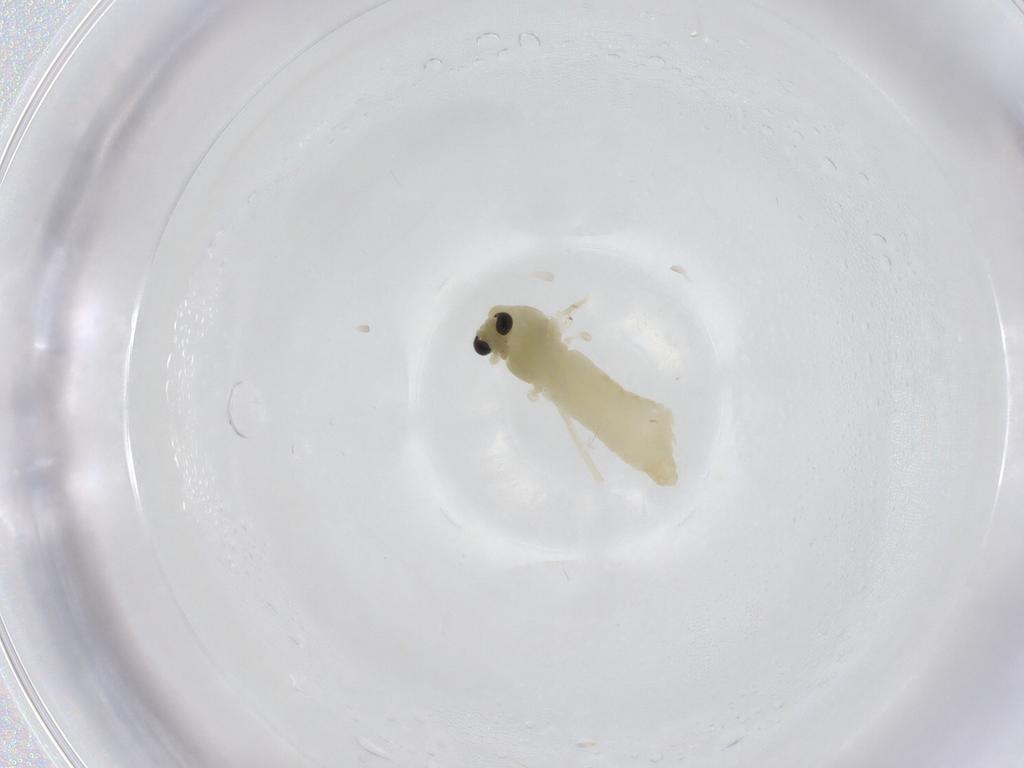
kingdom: Animalia
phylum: Arthropoda
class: Insecta
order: Diptera
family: Chironomidae
